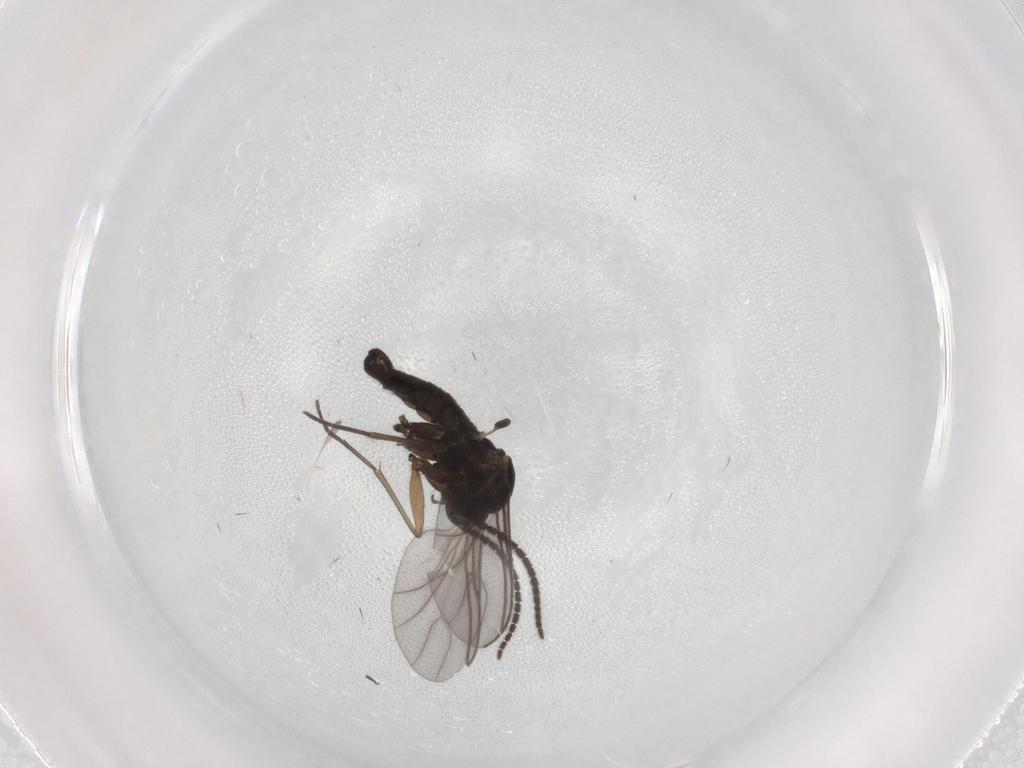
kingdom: Animalia
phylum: Arthropoda
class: Insecta
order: Diptera
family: Sciaridae
